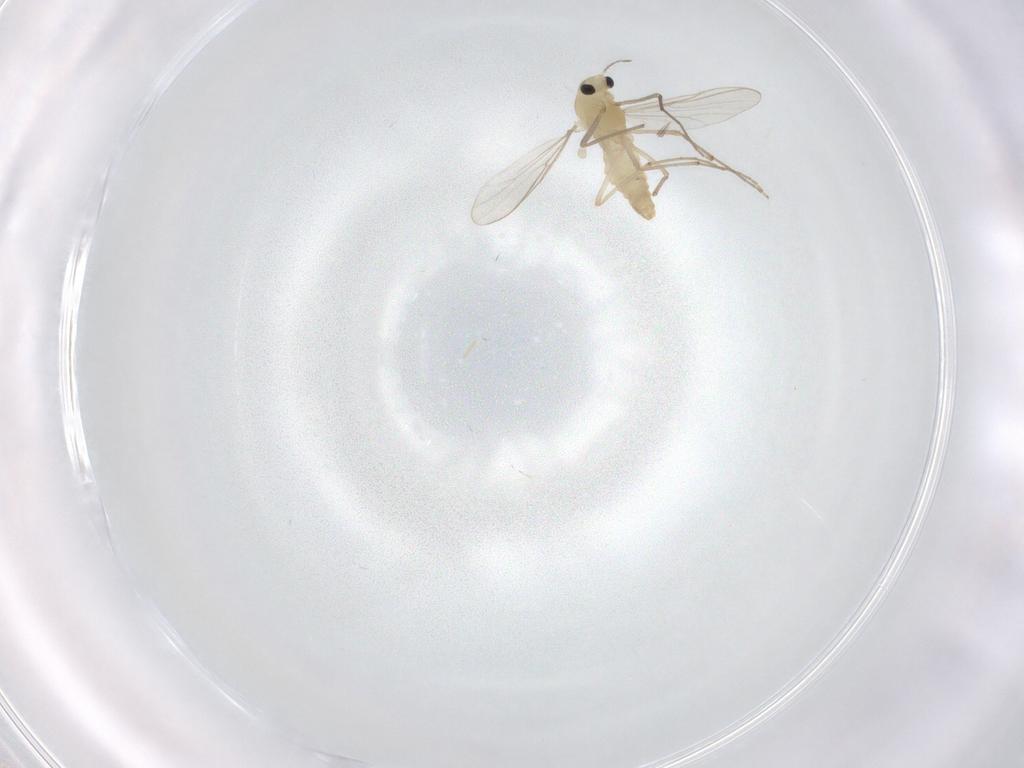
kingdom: Animalia
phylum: Arthropoda
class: Insecta
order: Diptera
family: Chironomidae
